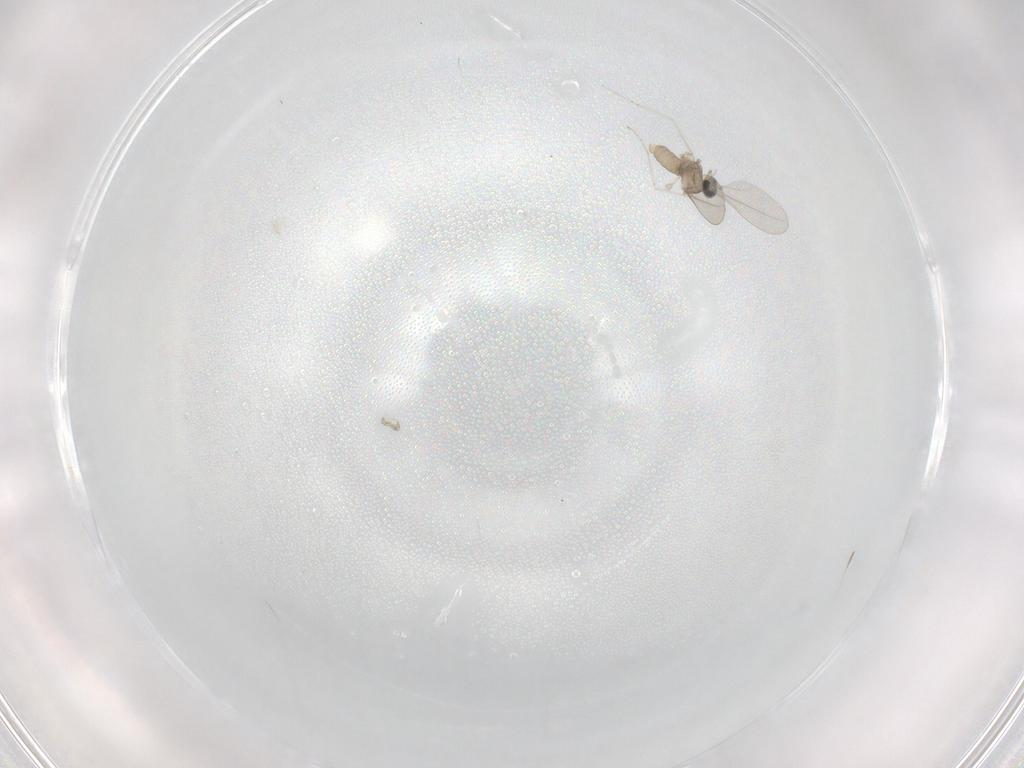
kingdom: Animalia
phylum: Arthropoda
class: Insecta
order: Diptera
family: Cecidomyiidae
